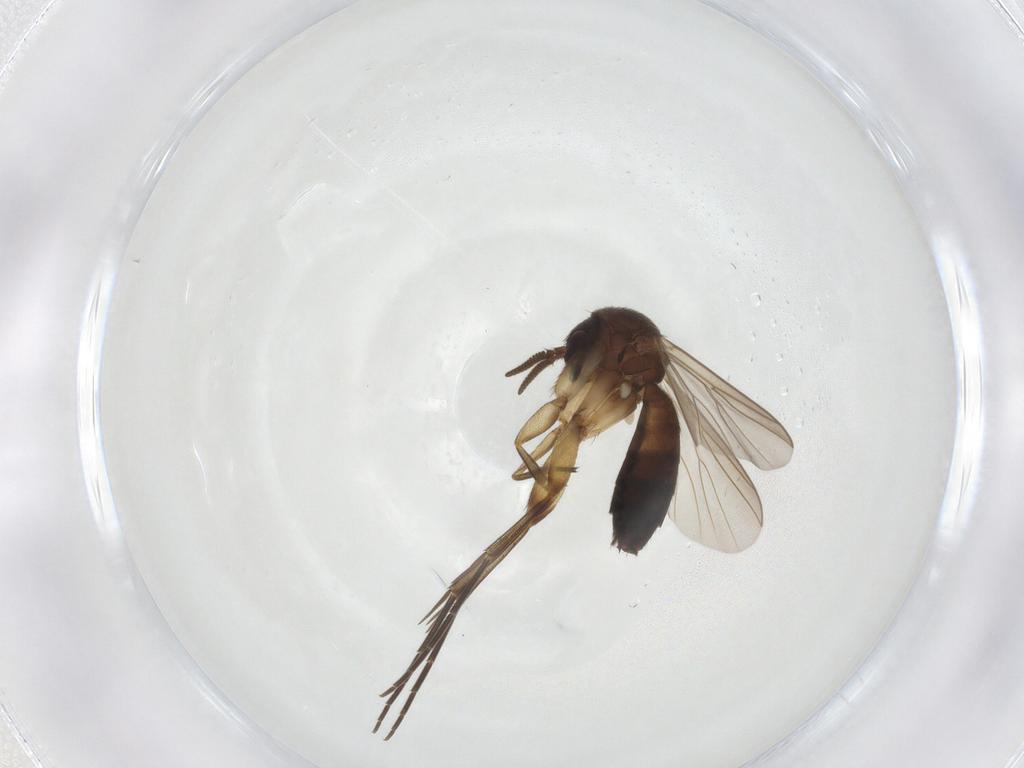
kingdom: Animalia
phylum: Arthropoda
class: Insecta
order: Diptera
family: Mycetophilidae
